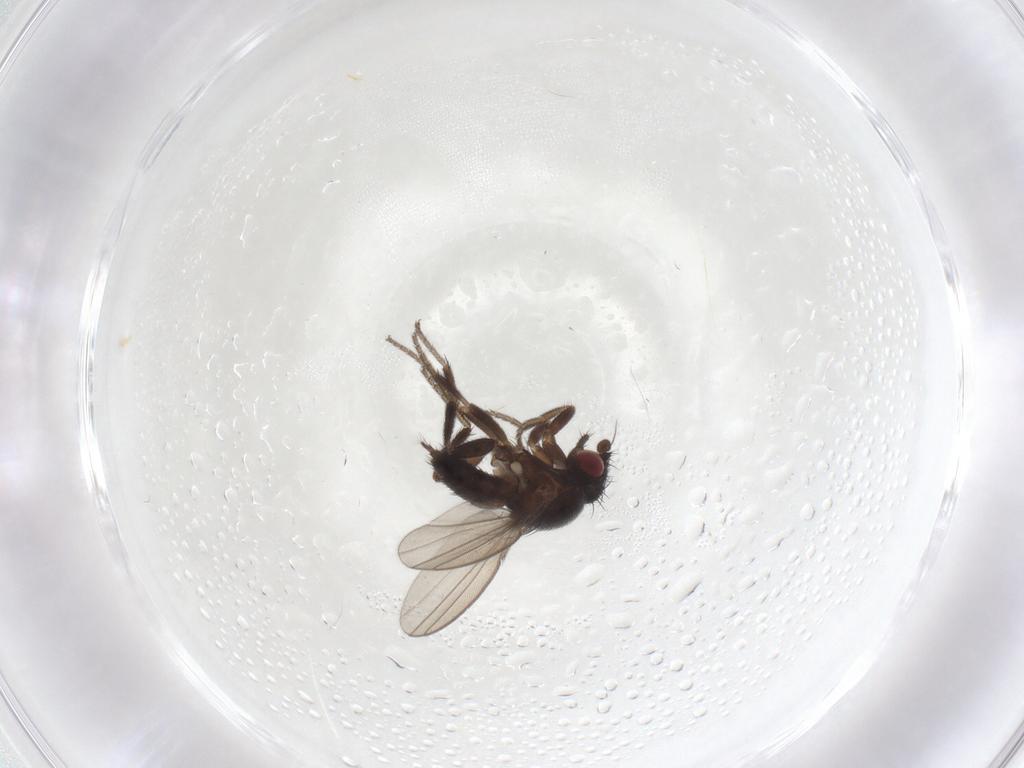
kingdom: Animalia
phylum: Arthropoda
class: Insecta
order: Diptera
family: Milichiidae
